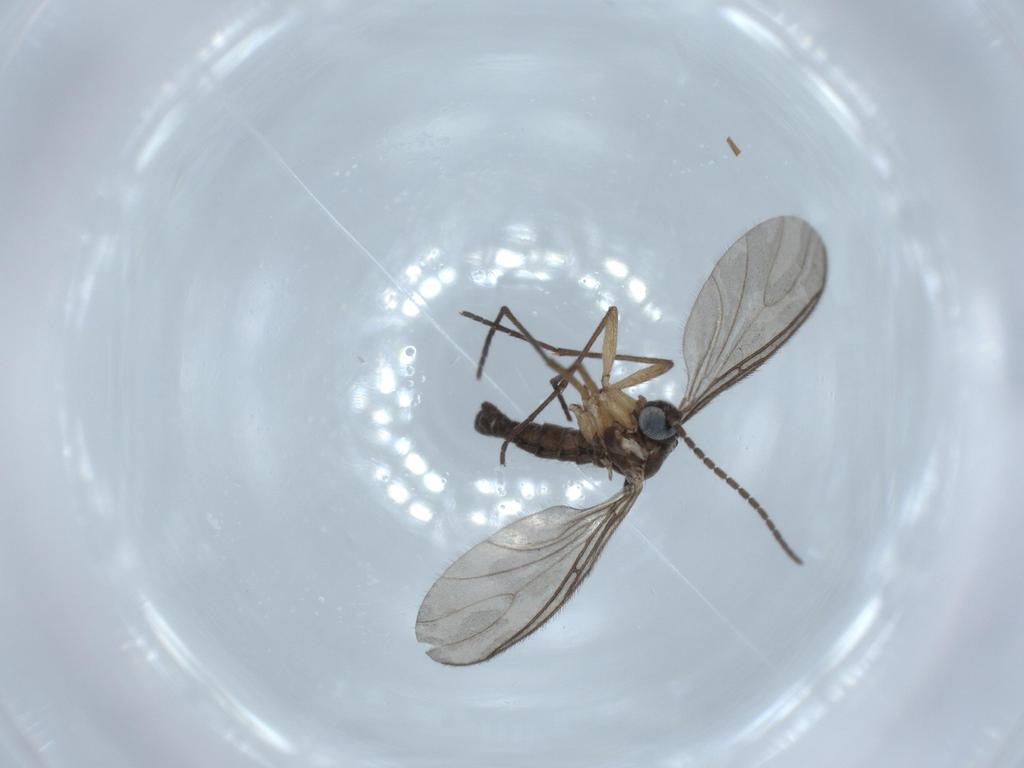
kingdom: Animalia
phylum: Arthropoda
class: Insecta
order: Diptera
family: Sciaridae
